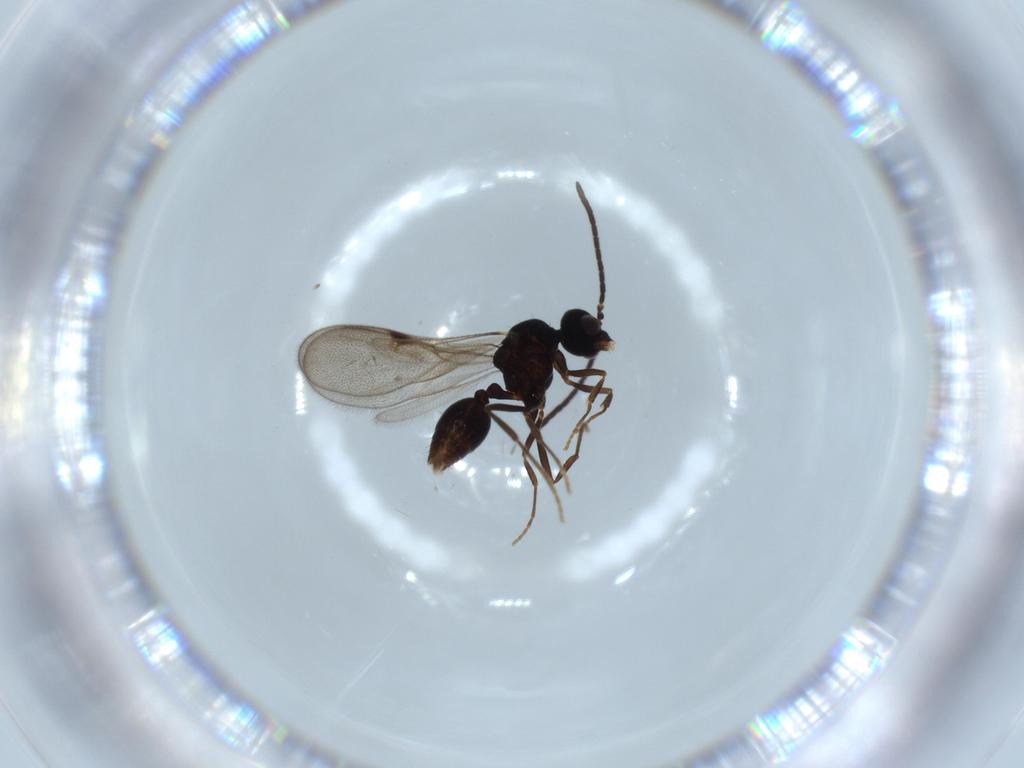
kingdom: Animalia
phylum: Arthropoda
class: Insecta
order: Hymenoptera
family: Formicidae
